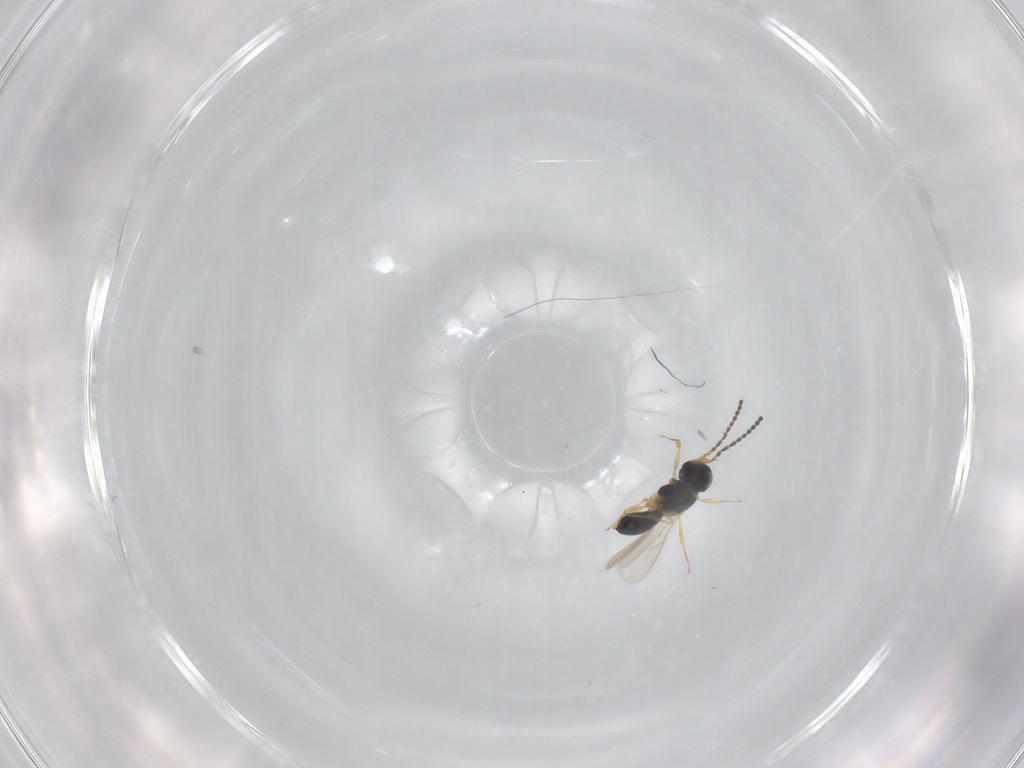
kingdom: Animalia
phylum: Arthropoda
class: Insecta
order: Hymenoptera
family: Scelionidae
